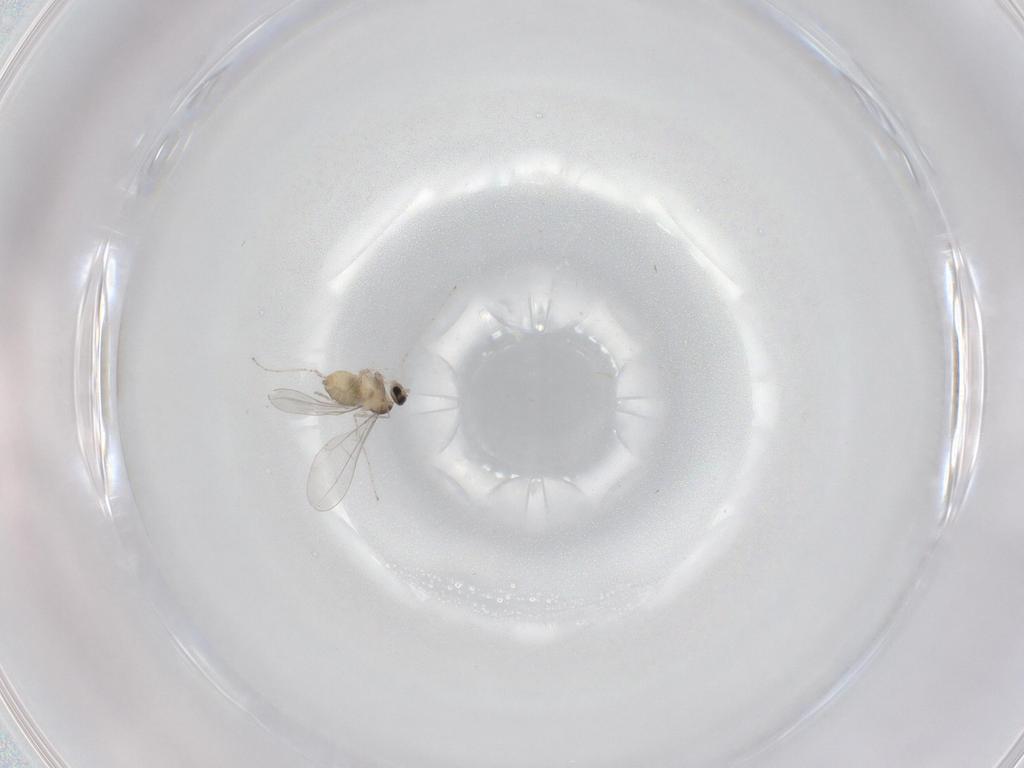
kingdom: Animalia
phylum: Arthropoda
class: Insecta
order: Diptera
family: Cecidomyiidae
